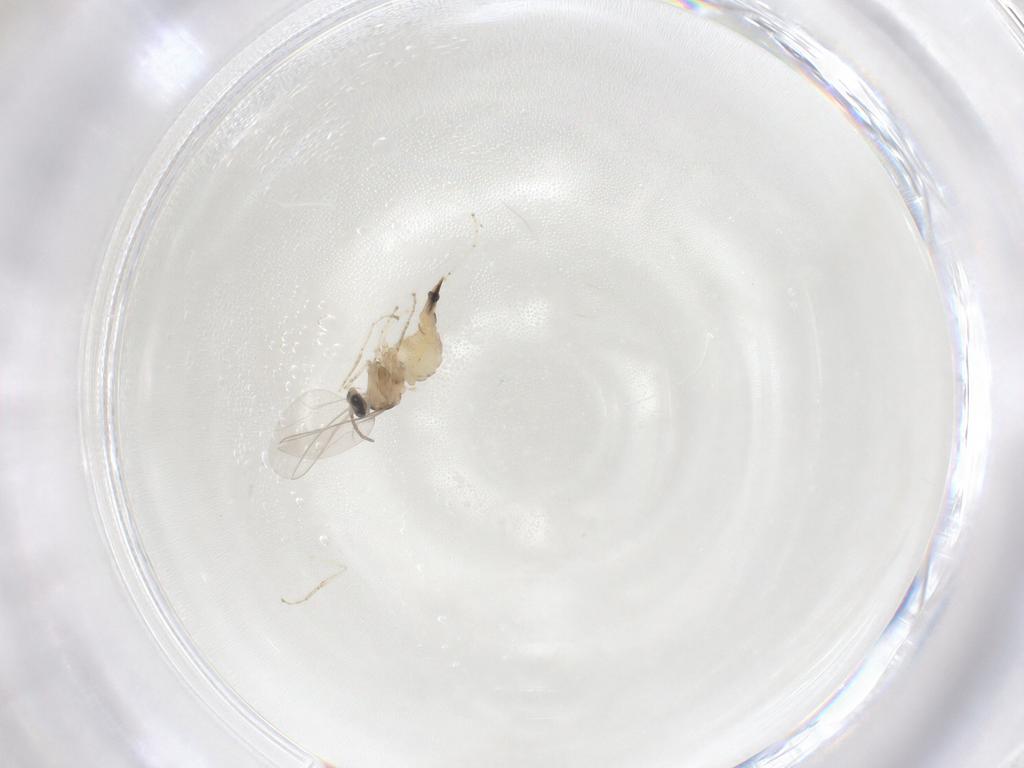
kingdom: Animalia
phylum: Arthropoda
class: Insecta
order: Diptera
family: Cecidomyiidae
